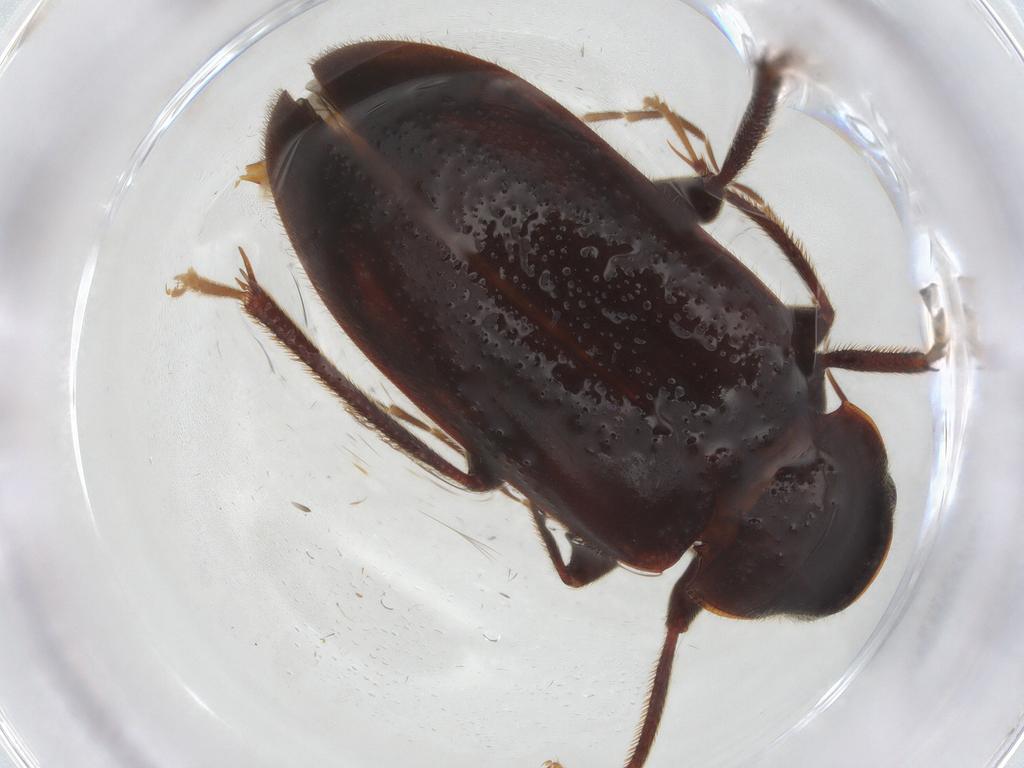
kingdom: Animalia
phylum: Arthropoda
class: Insecta
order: Coleoptera
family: Ptilodactylidae
